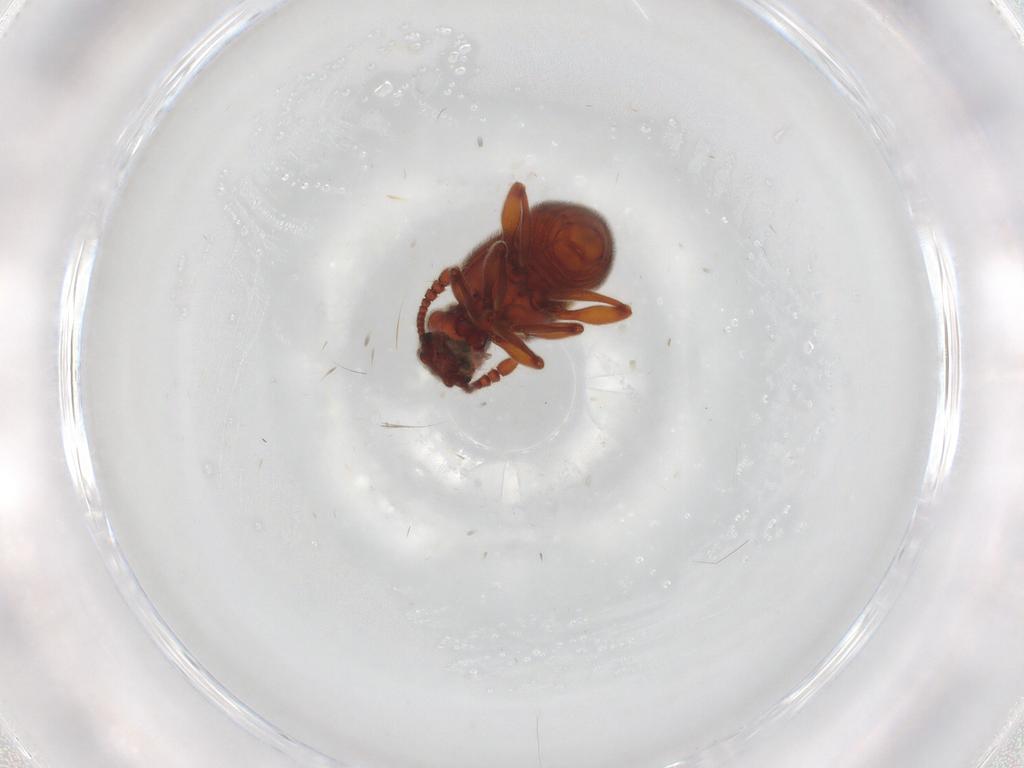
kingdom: Animalia
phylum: Arthropoda
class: Insecta
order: Coleoptera
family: Staphylinidae
